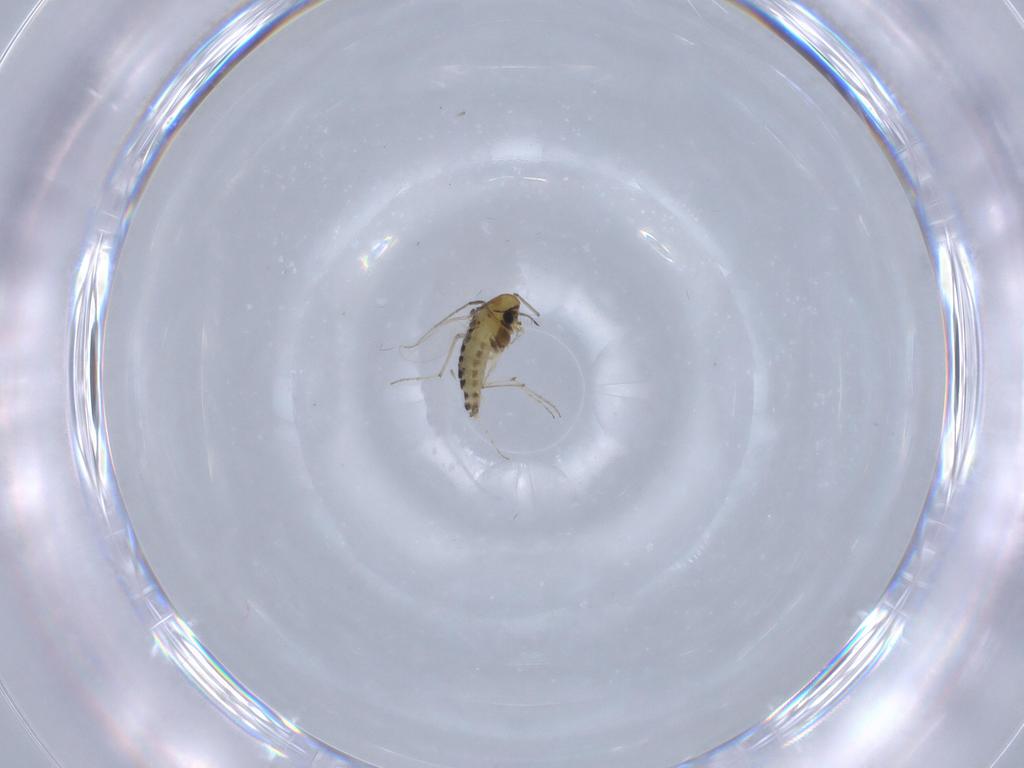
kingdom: Animalia
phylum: Arthropoda
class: Insecta
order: Diptera
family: Chironomidae
